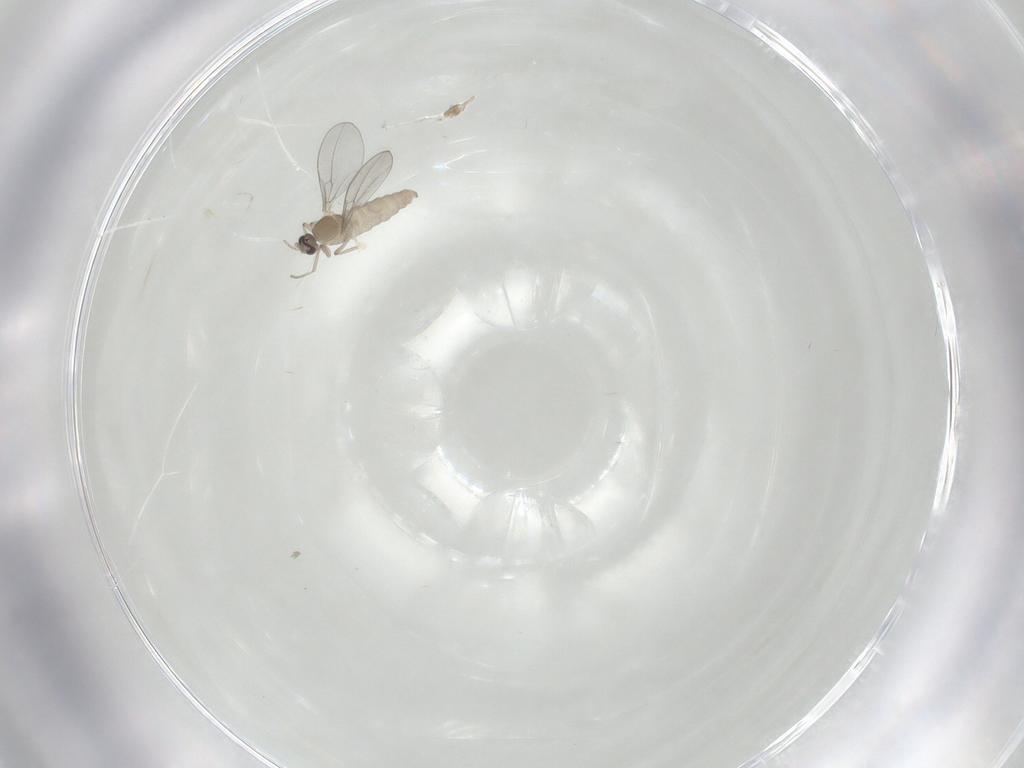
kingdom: Animalia
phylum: Arthropoda
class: Insecta
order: Diptera
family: Cecidomyiidae
